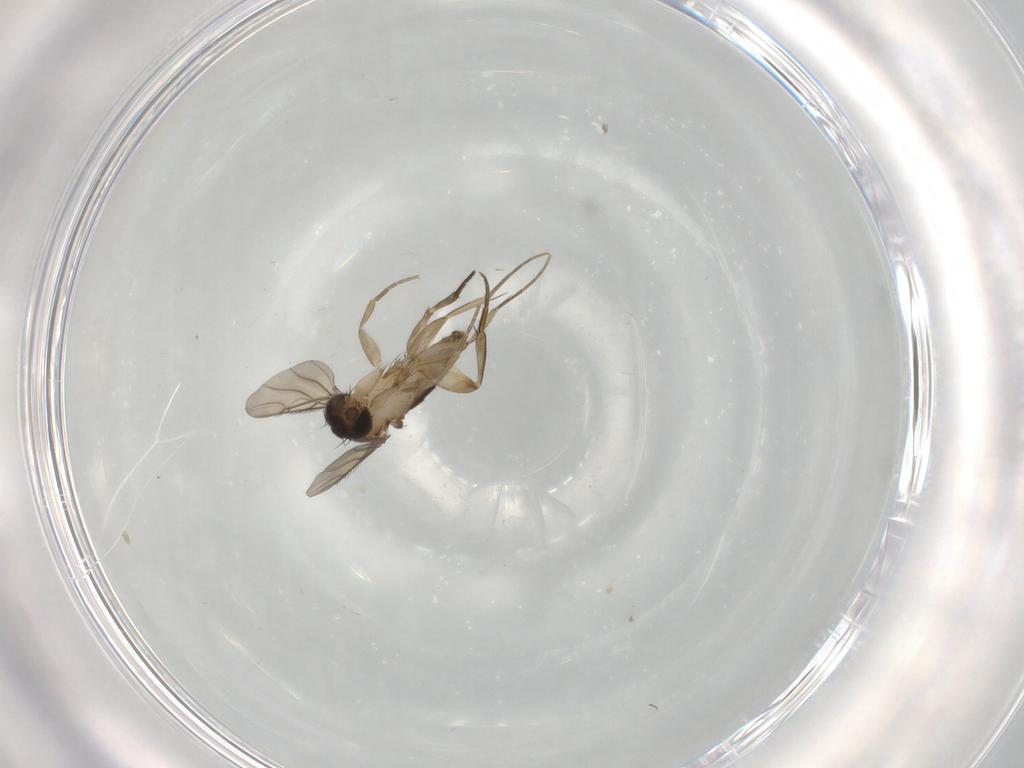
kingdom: Animalia
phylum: Arthropoda
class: Insecta
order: Diptera
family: Phoridae
